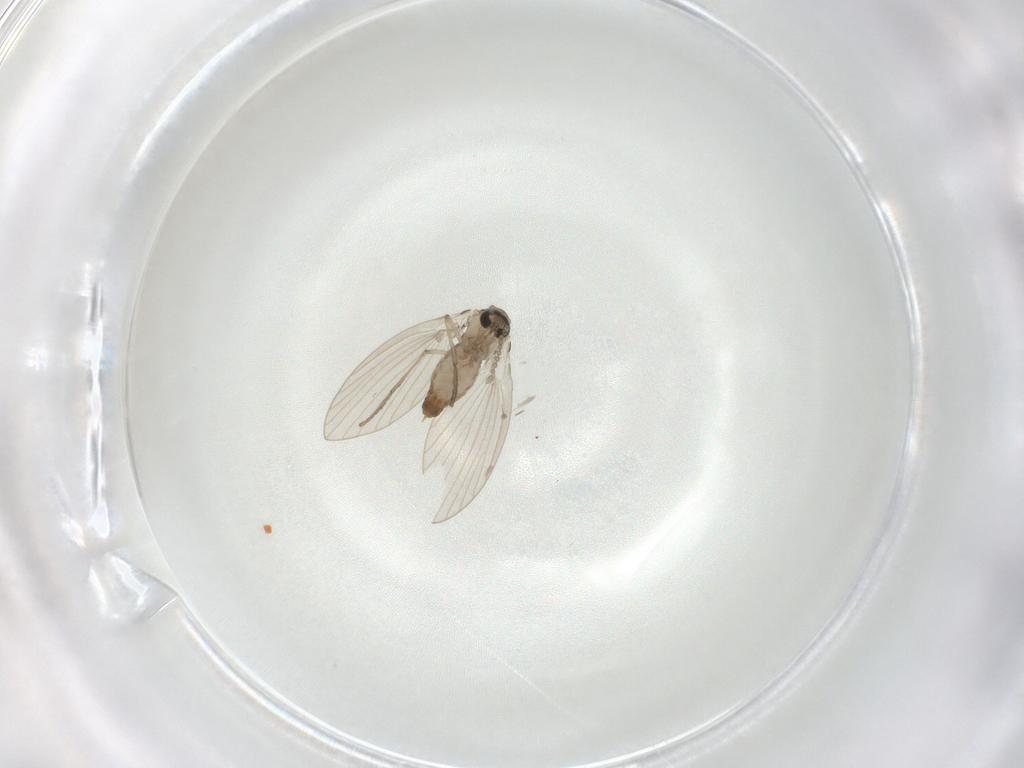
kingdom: Animalia
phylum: Arthropoda
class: Insecta
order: Diptera
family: Psychodidae
